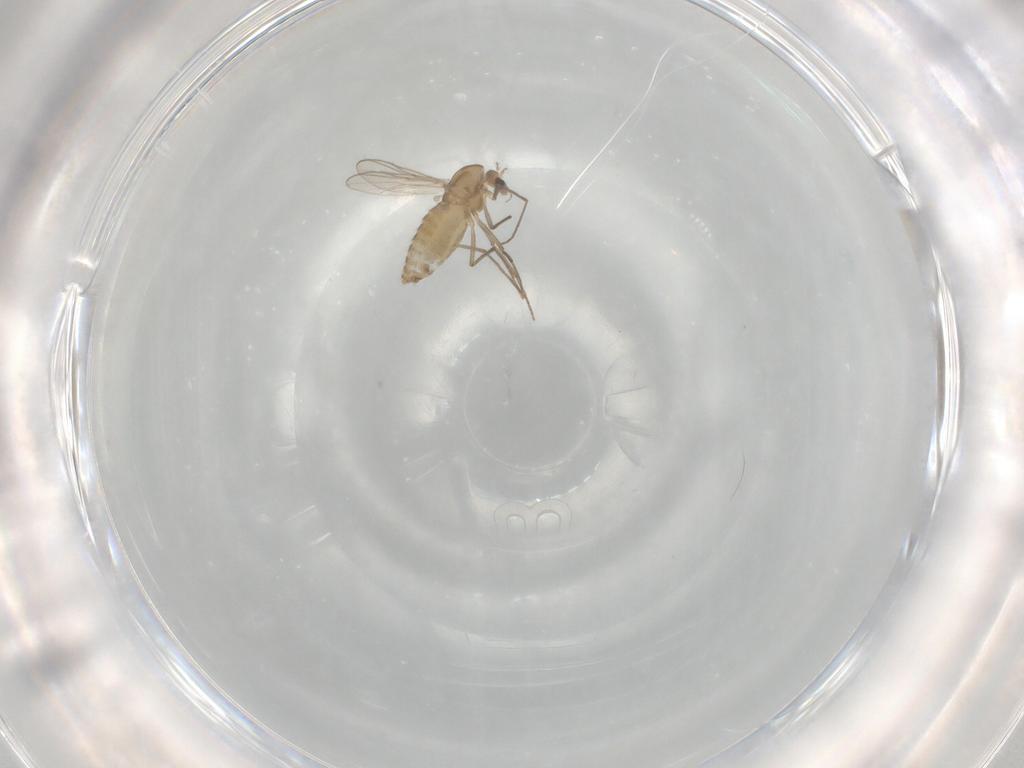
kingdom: Animalia
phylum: Arthropoda
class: Insecta
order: Diptera
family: Chironomidae
